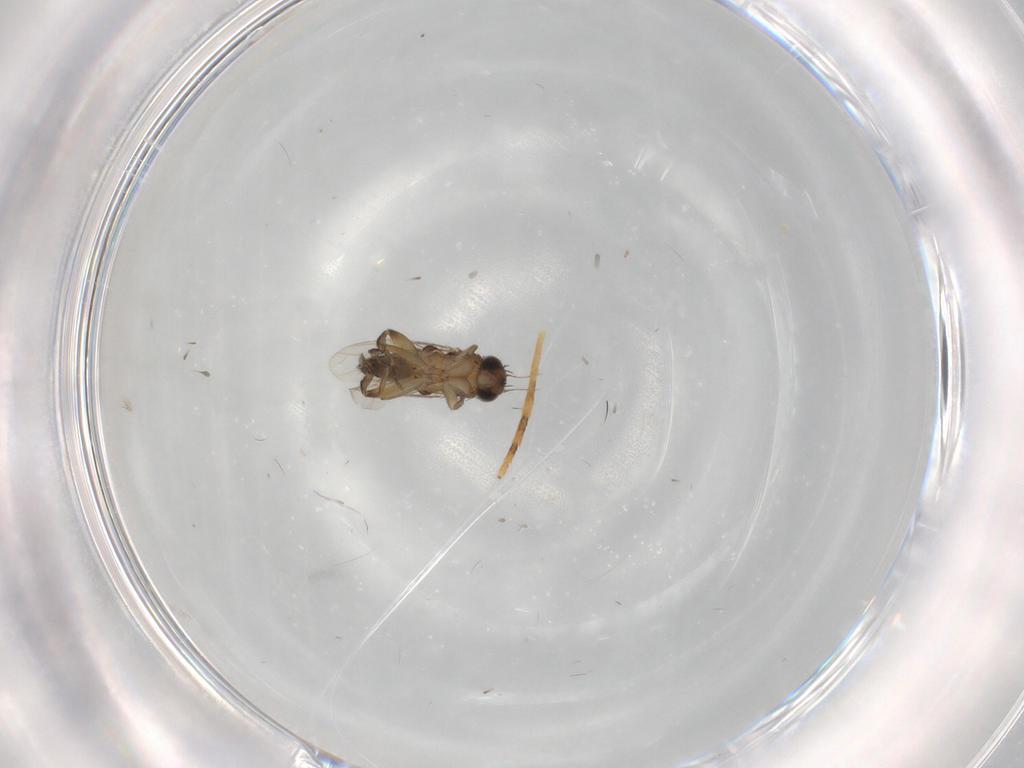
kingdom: Animalia
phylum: Arthropoda
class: Insecta
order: Diptera
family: Chironomidae
